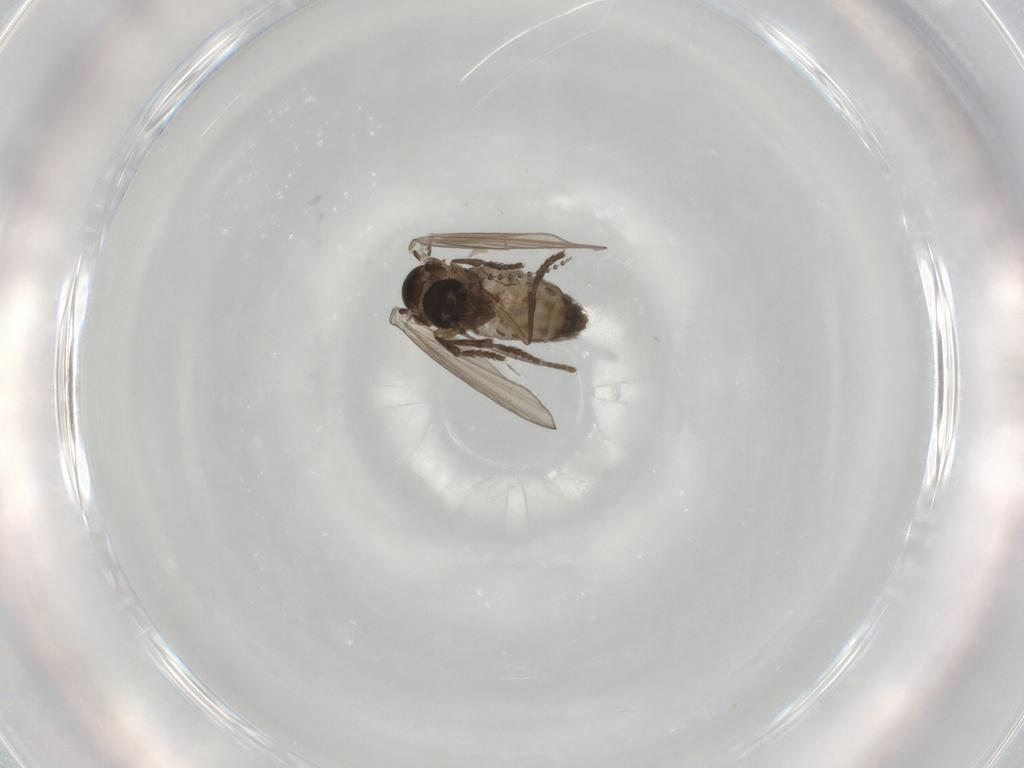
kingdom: Animalia
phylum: Arthropoda
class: Insecta
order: Diptera
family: Psychodidae
